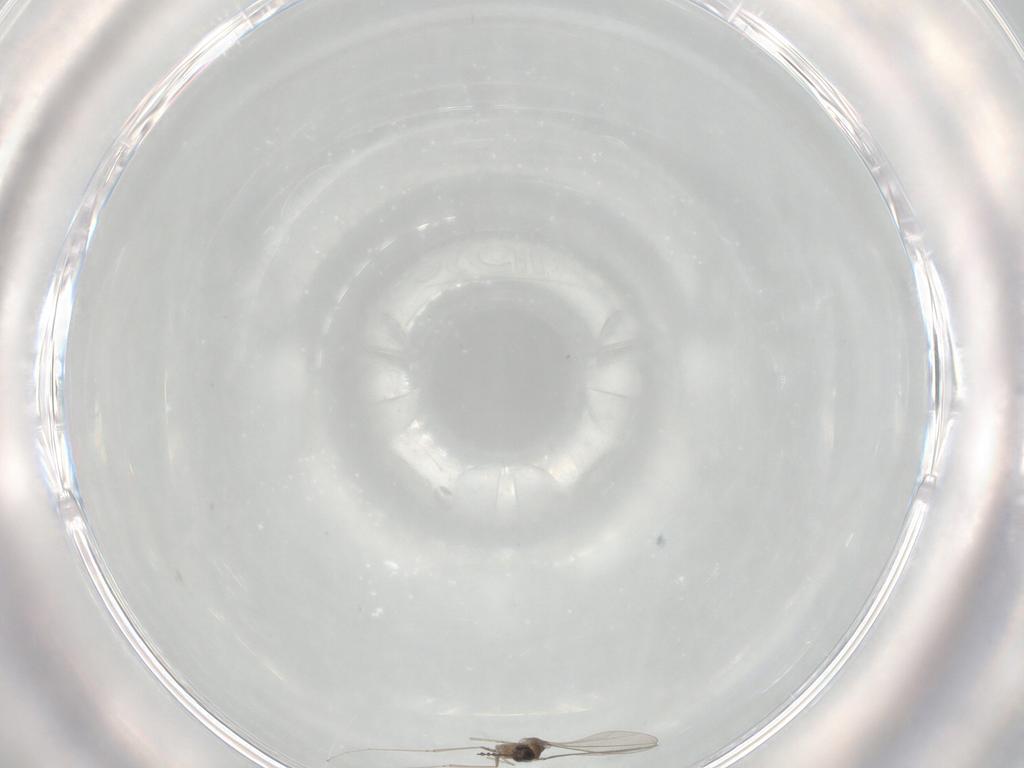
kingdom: Animalia
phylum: Arthropoda
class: Insecta
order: Diptera
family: Cecidomyiidae
